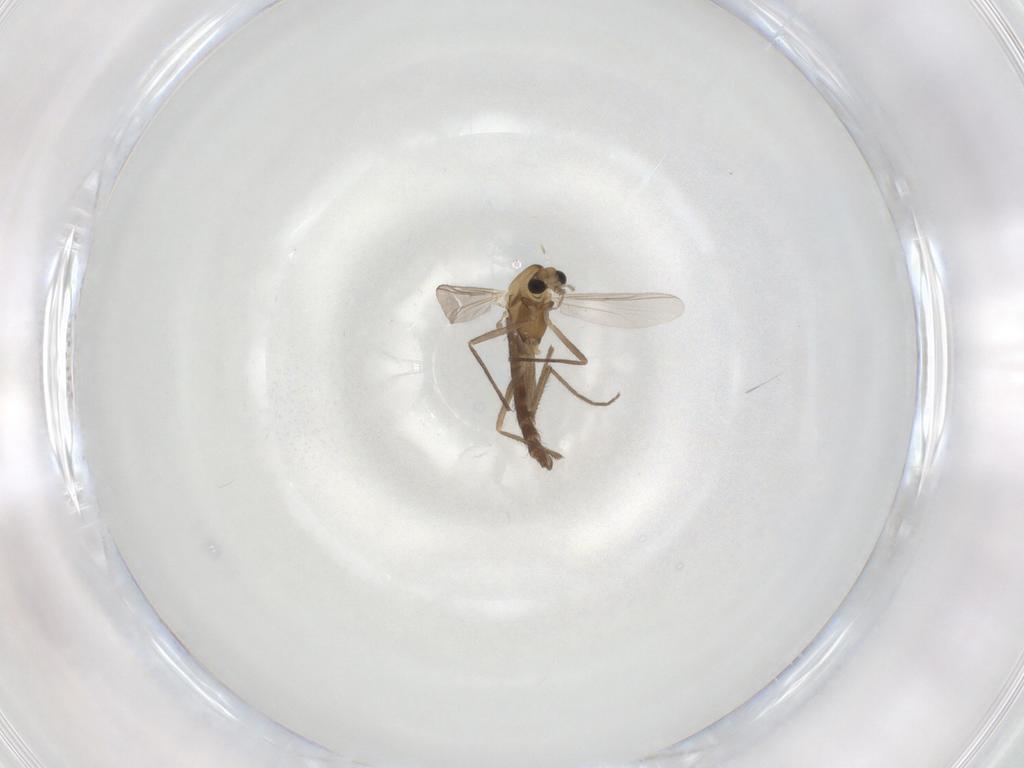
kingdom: Animalia
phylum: Arthropoda
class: Insecta
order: Diptera
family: Chironomidae
